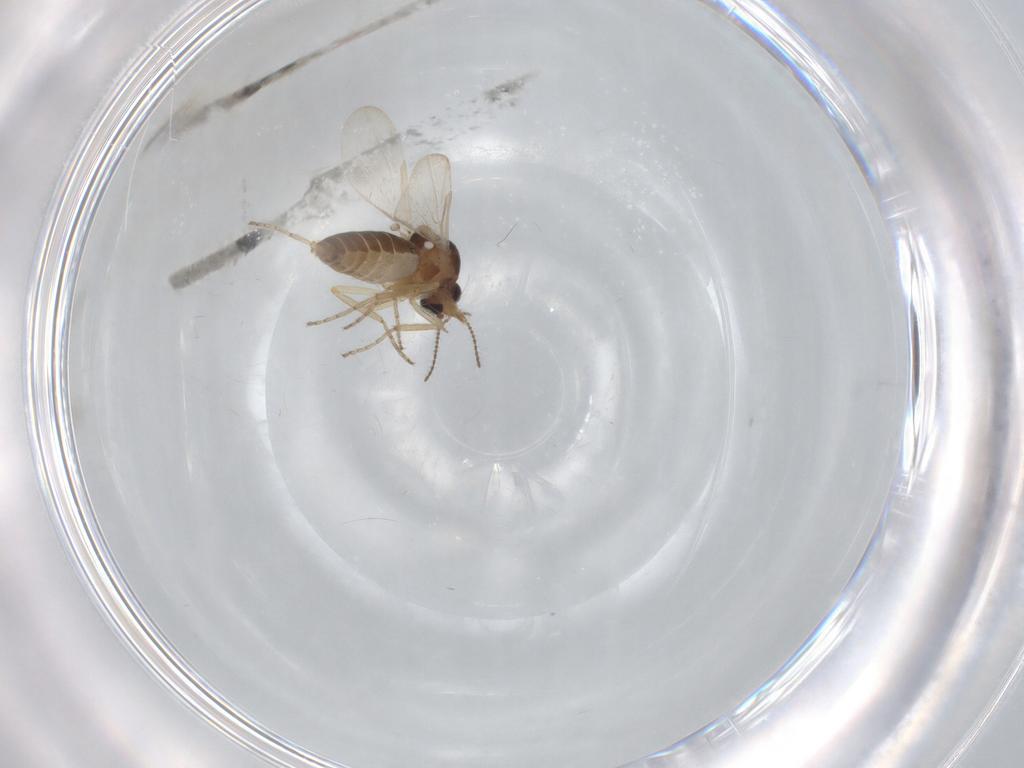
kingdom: Animalia
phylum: Arthropoda
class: Insecta
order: Diptera
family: Ceratopogonidae
